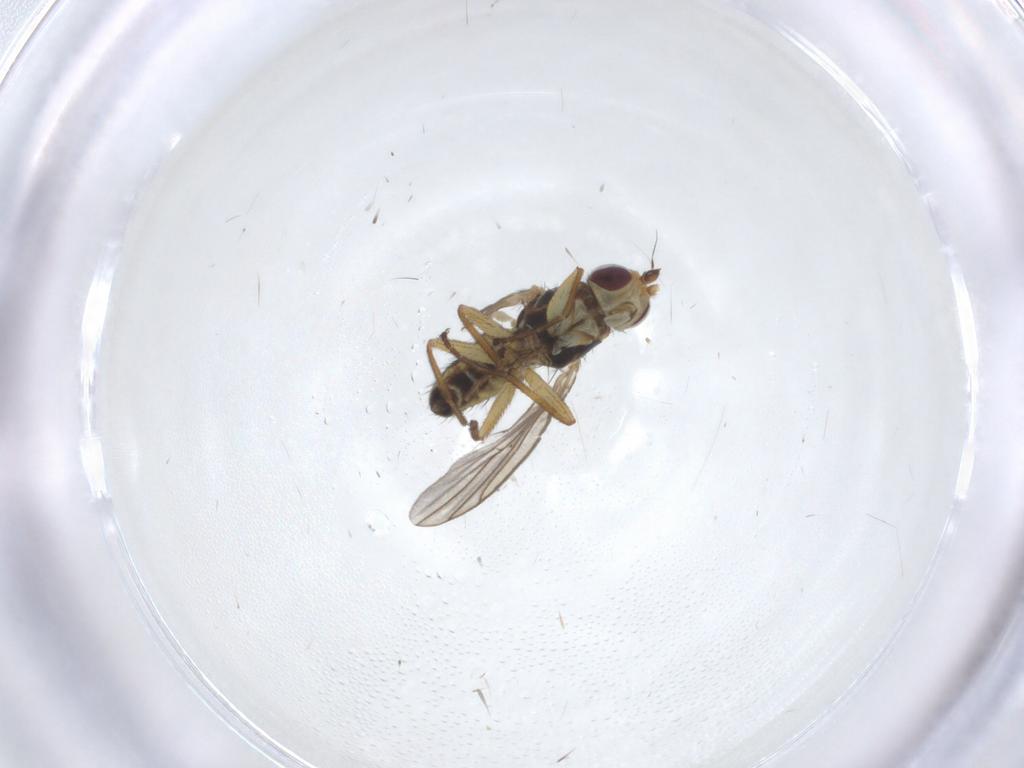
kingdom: Animalia
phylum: Arthropoda
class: Insecta
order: Diptera
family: Agromyzidae
